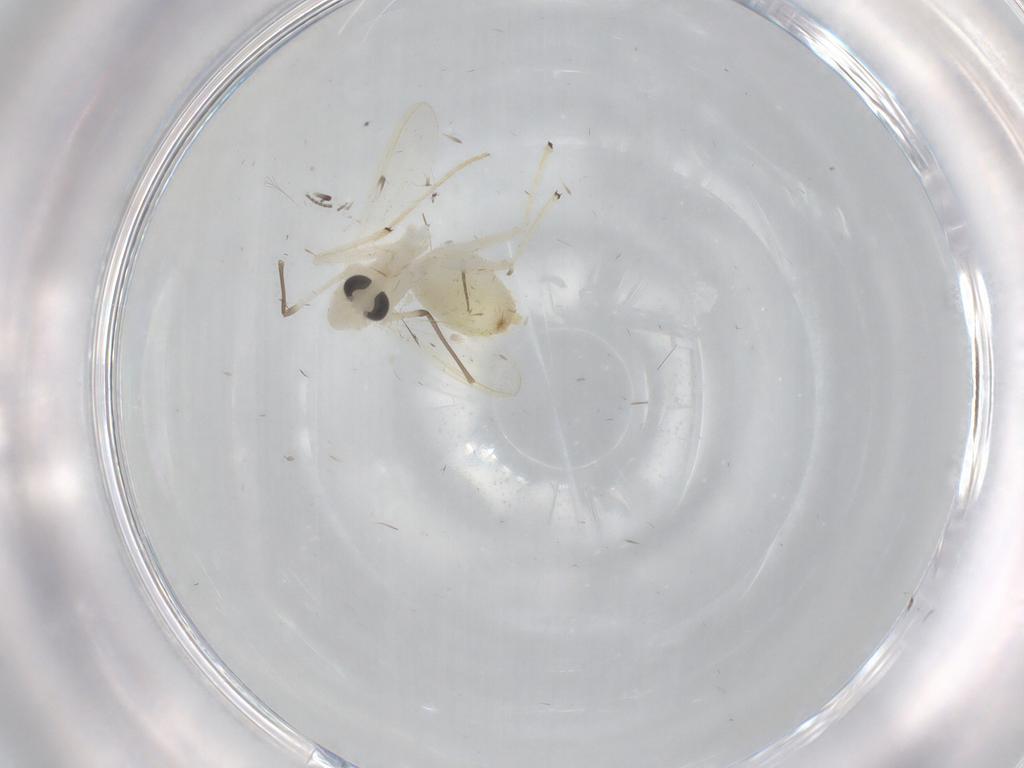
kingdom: Animalia
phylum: Arthropoda
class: Insecta
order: Diptera
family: Chironomidae
